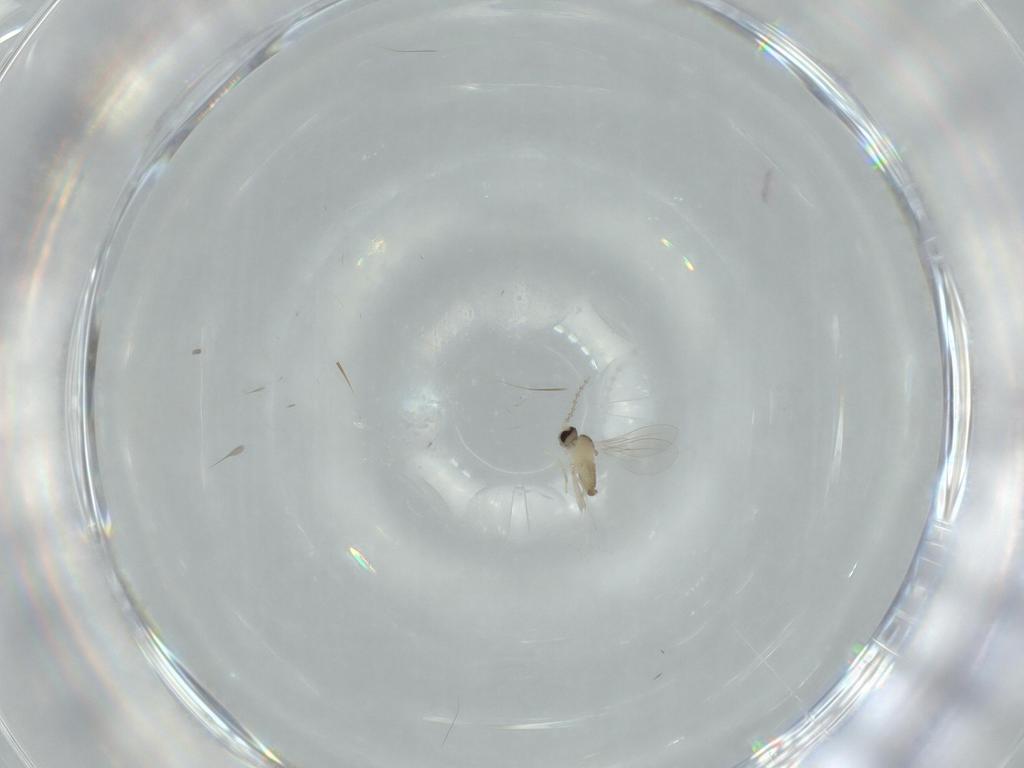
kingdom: Animalia
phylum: Arthropoda
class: Insecta
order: Diptera
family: Cecidomyiidae
